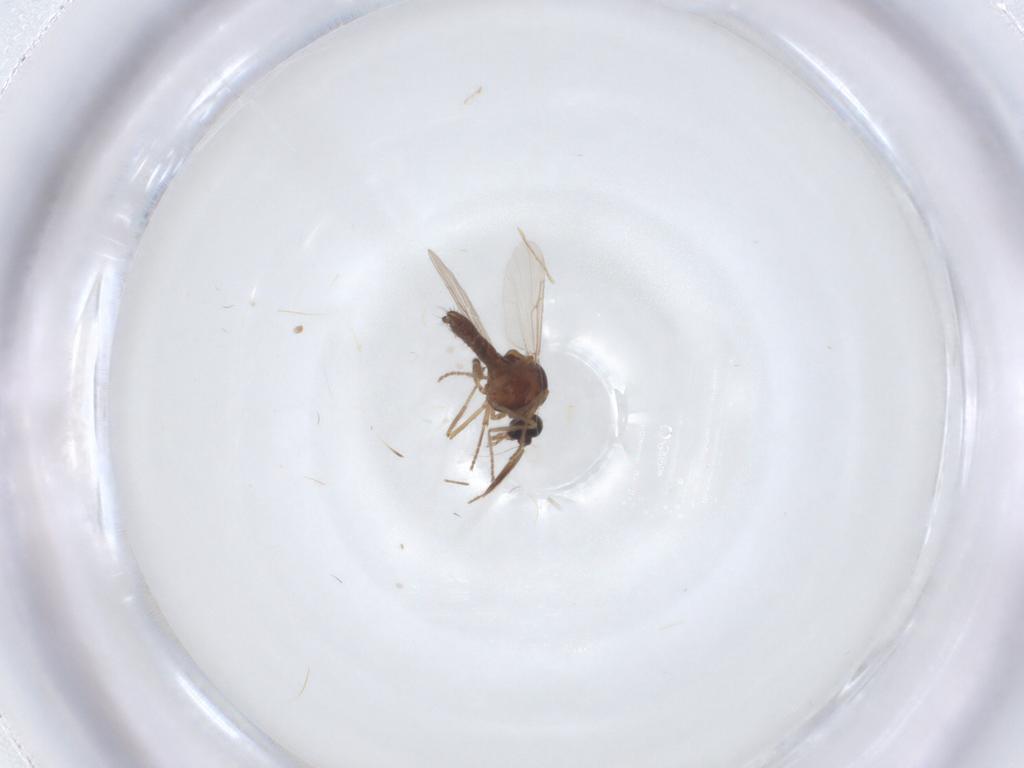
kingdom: Animalia
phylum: Arthropoda
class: Insecta
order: Diptera
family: Ceratopogonidae
